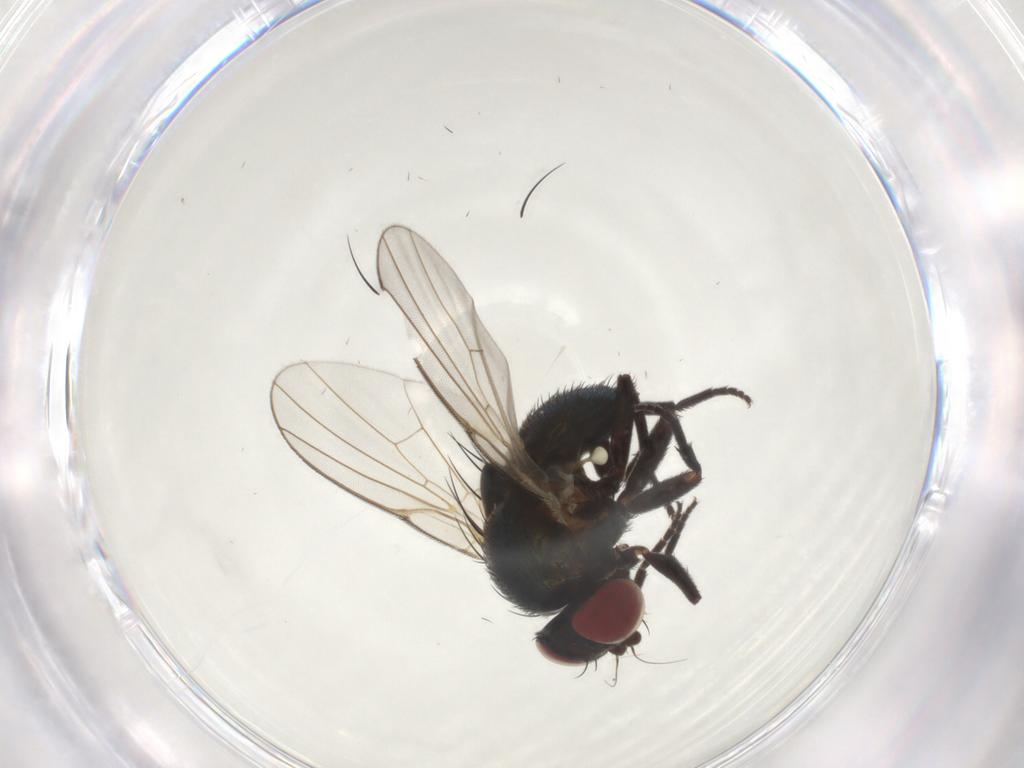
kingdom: Animalia
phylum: Arthropoda
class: Insecta
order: Diptera
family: Agromyzidae
